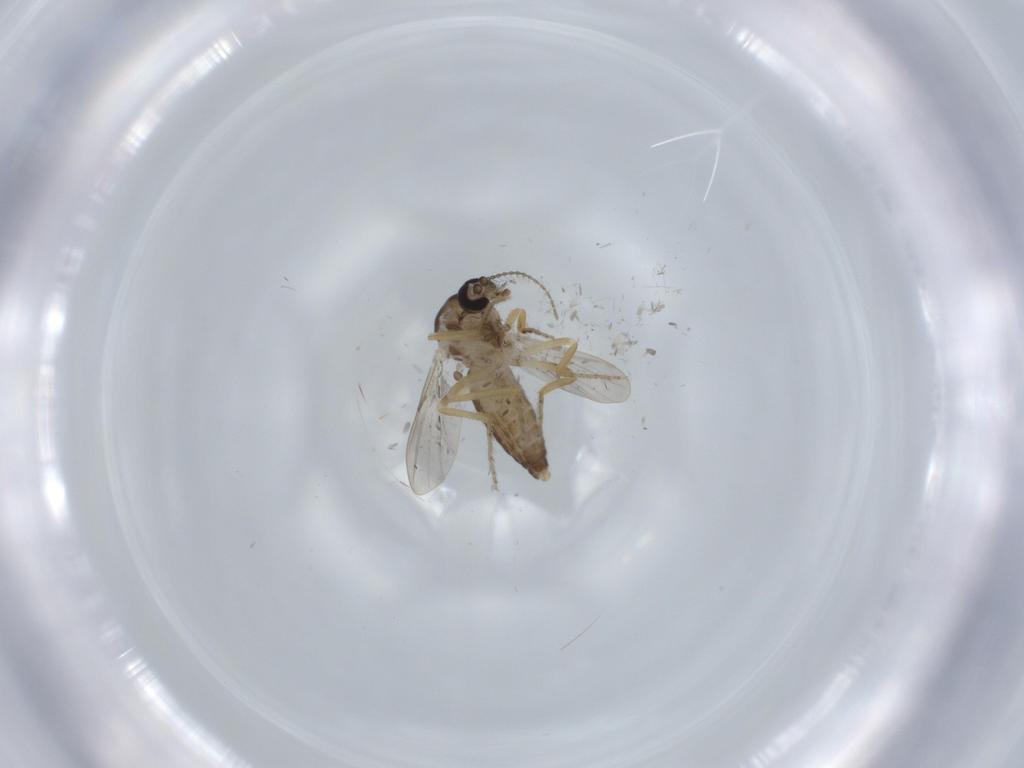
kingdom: Animalia
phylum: Arthropoda
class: Insecta
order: Diptera
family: Ceratopogonidae
